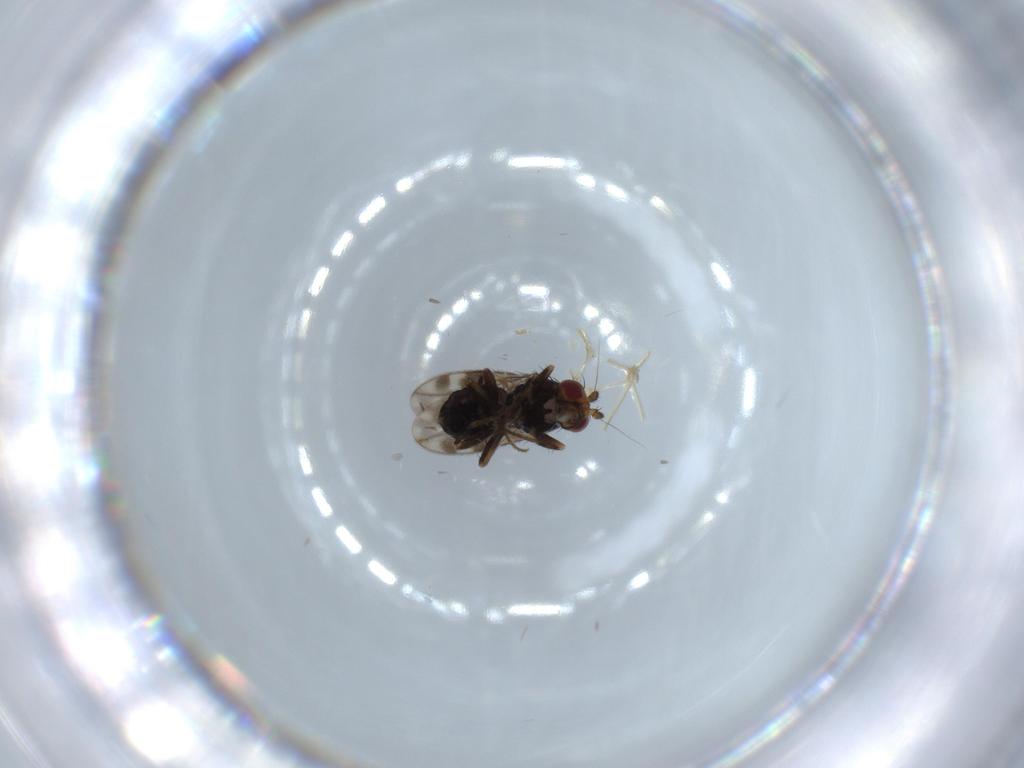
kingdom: Animalia
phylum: Arthropoda
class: Insecta
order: Diptera
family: Sphaeroceridae
